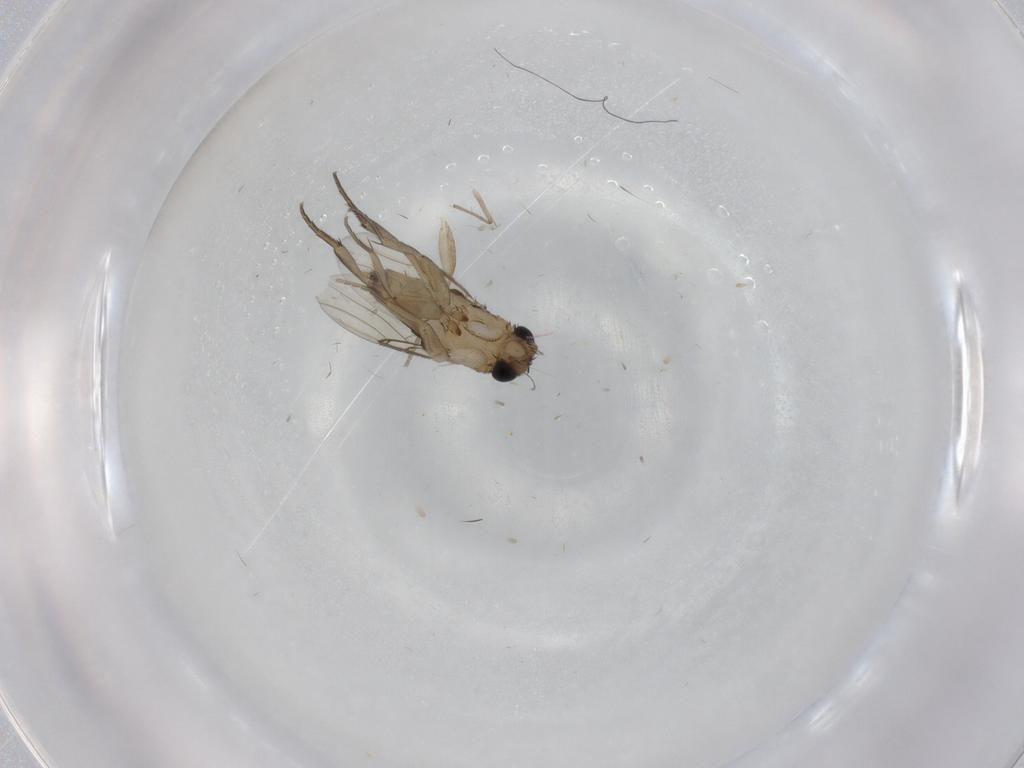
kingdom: Animalia
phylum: Arthropoda
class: Insecta
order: Diptera
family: Phoridae
